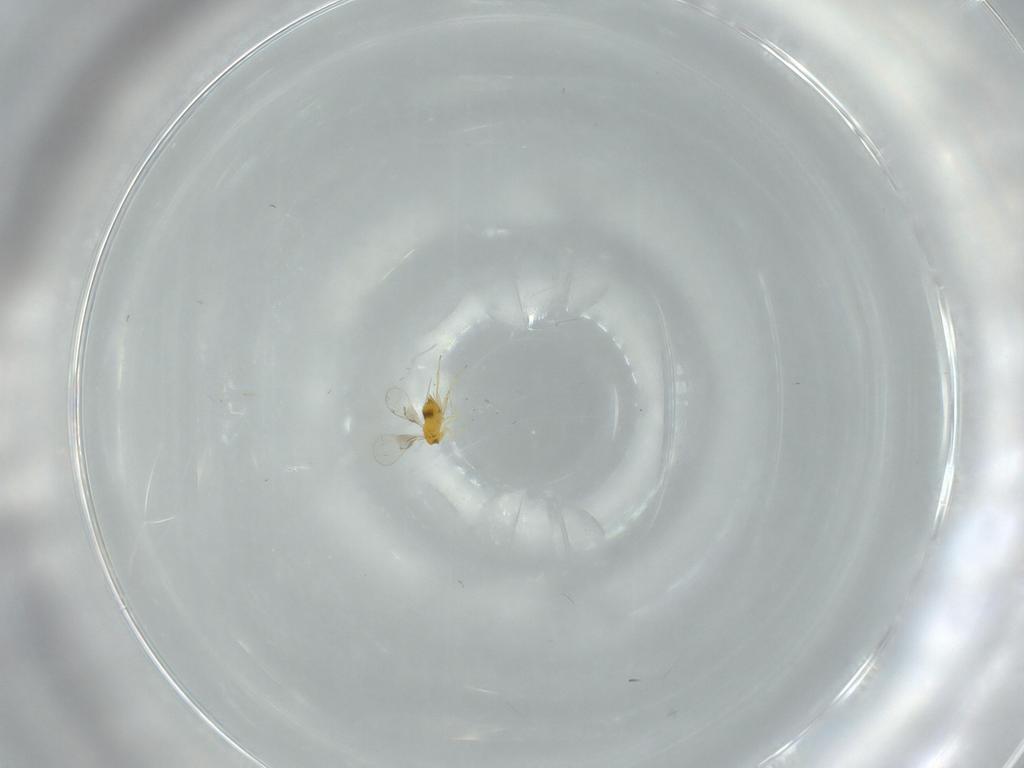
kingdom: Animalia
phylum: Arthropoda
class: Insecta
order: Hymenoptera
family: Trichogrammatidae
